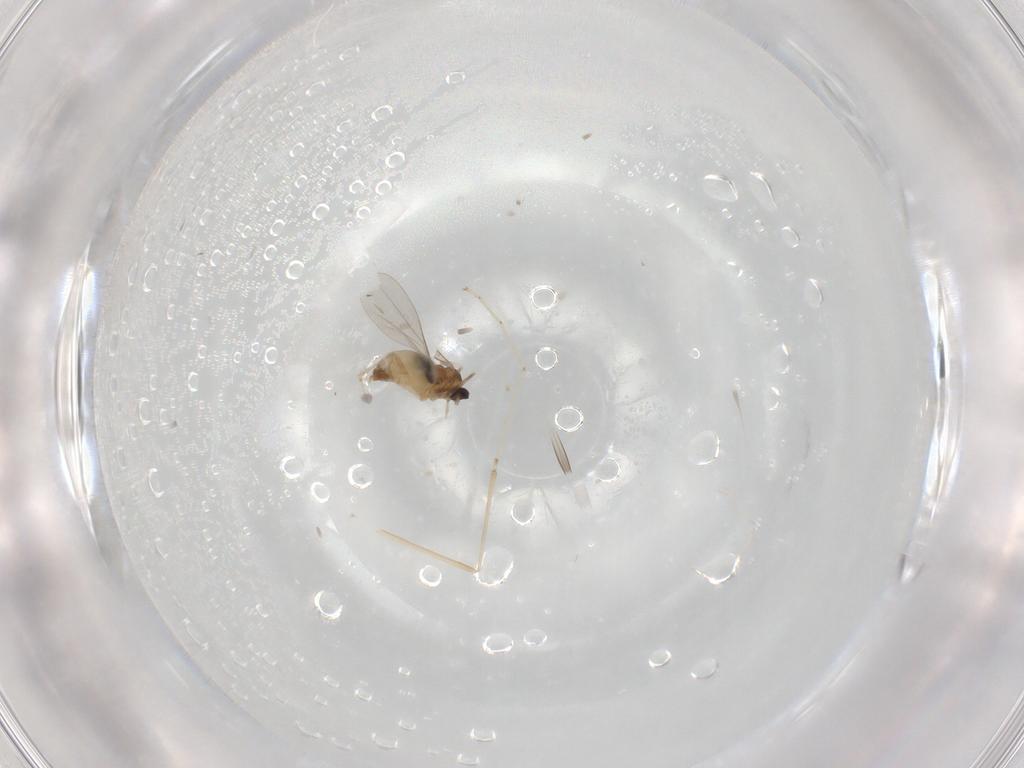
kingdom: Animalia
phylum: Arthropoda
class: Insecta
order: Diptera
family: Cecidomyiidae
